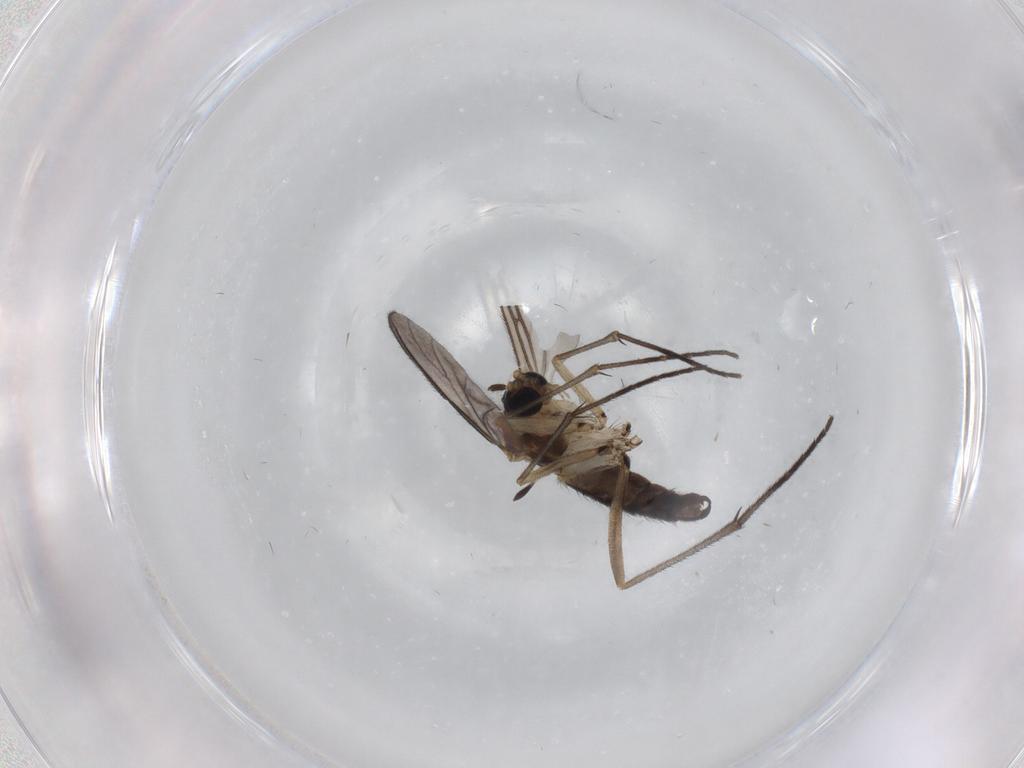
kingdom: Animalia
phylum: Arthropoda
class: Insecta
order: Diptera
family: Sciaridae
